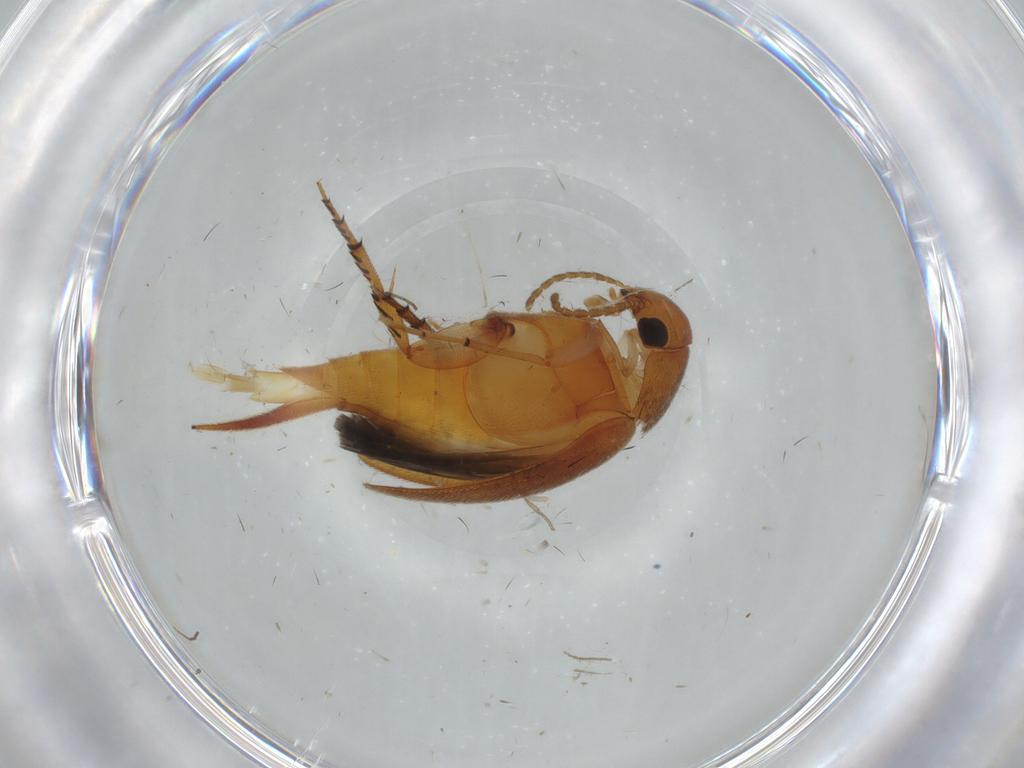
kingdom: Animalia
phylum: Arthropoda
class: Insecta
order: Coleoptera
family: Mordellidae
